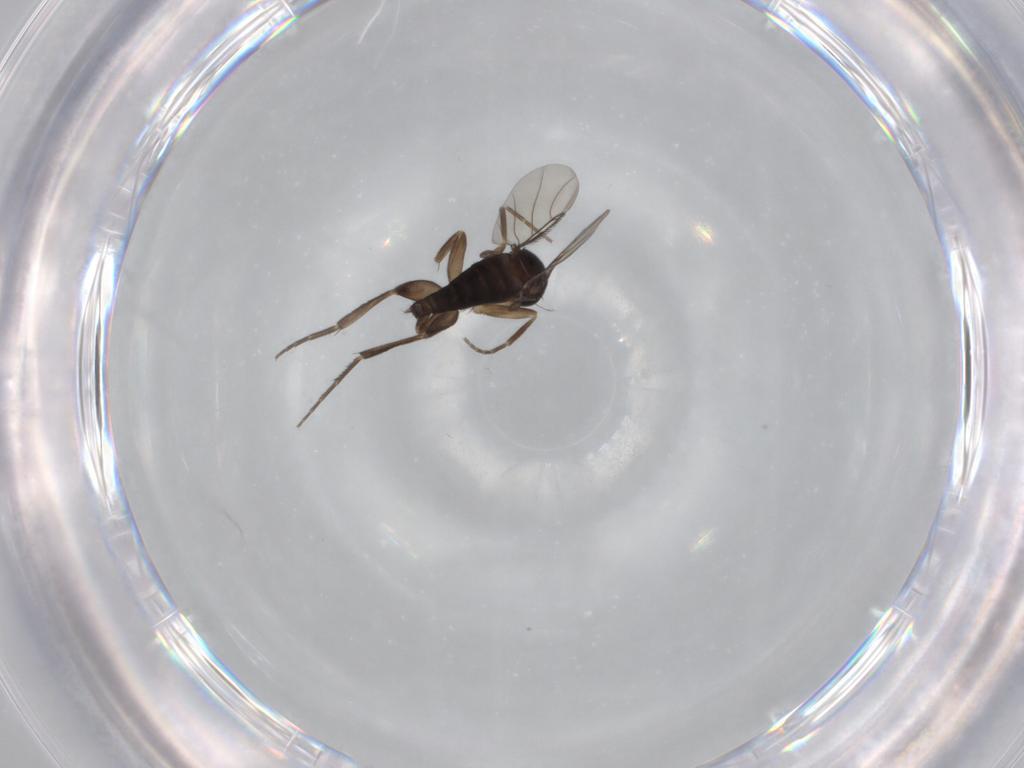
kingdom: Animalia
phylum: Arthropoda
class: Insecta
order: Diptera
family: Phoridae
